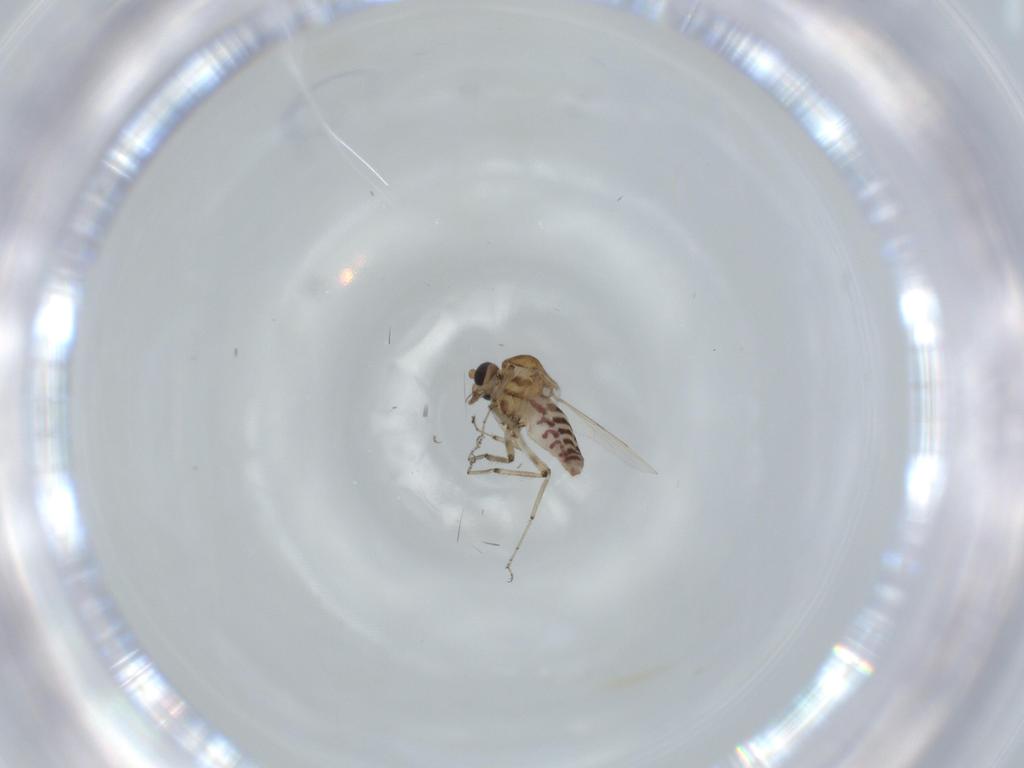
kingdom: Animalia
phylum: Arthropoda
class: Insecta
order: Diptera
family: Ceratopogonidae
